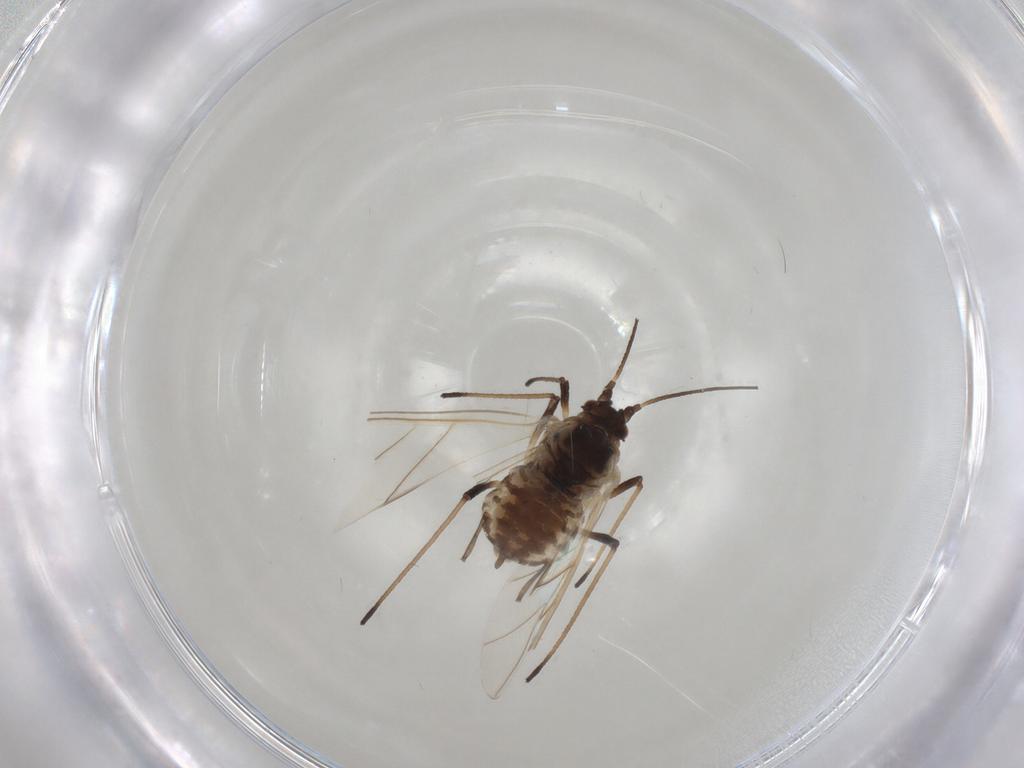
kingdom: Animalia
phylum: Arthropoda
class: Insecta
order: Hemiptera
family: Aphididae
